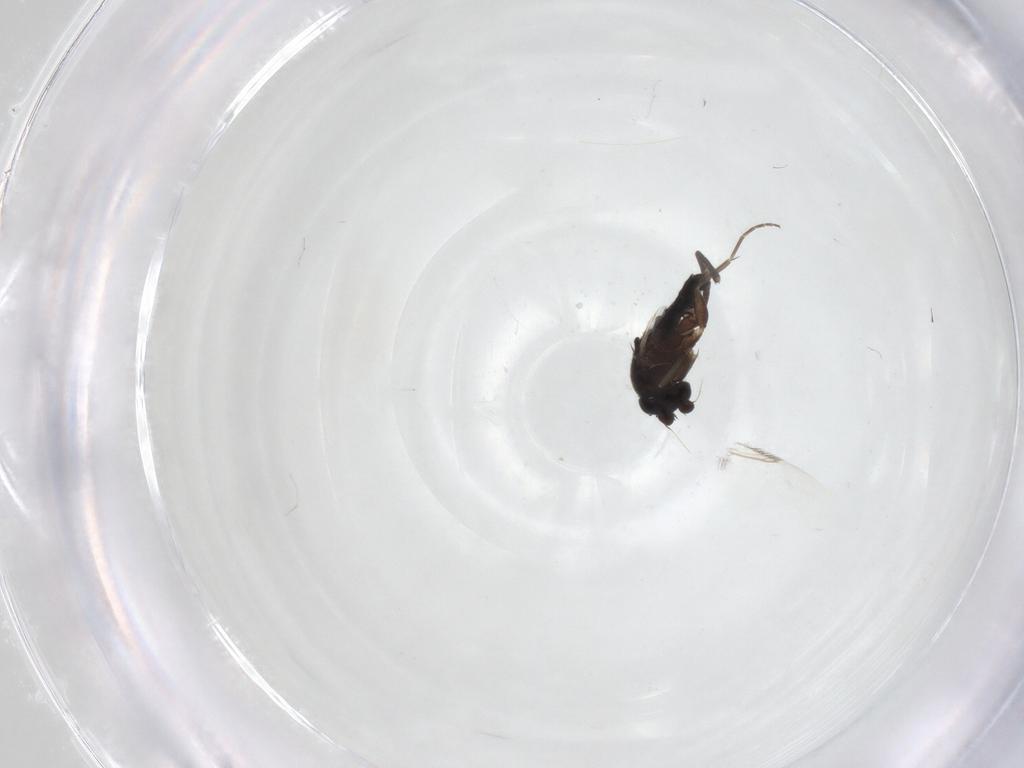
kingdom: Animalia
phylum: Arthropoda
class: Insecta
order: Diptera
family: Phoridae
